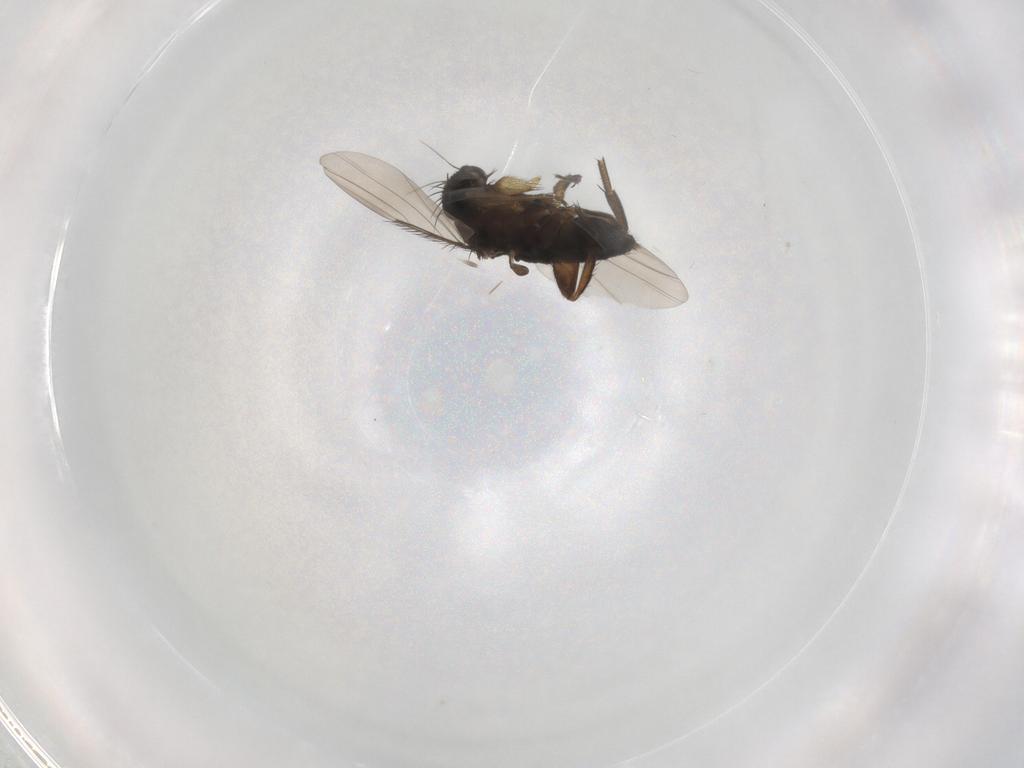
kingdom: Animalia
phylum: Arthropoda
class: Insecta
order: Diptera
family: Phoridae
